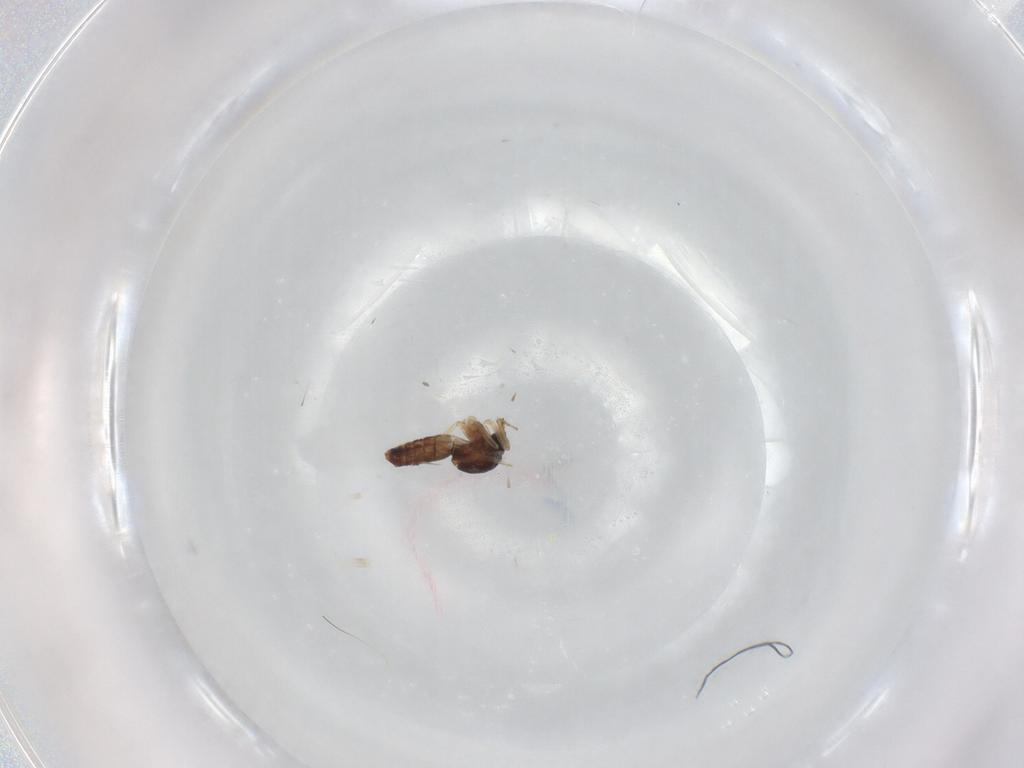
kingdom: Animalia
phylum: Arthropoda
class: Insecta
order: Diptera
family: Ceratopogonidae
